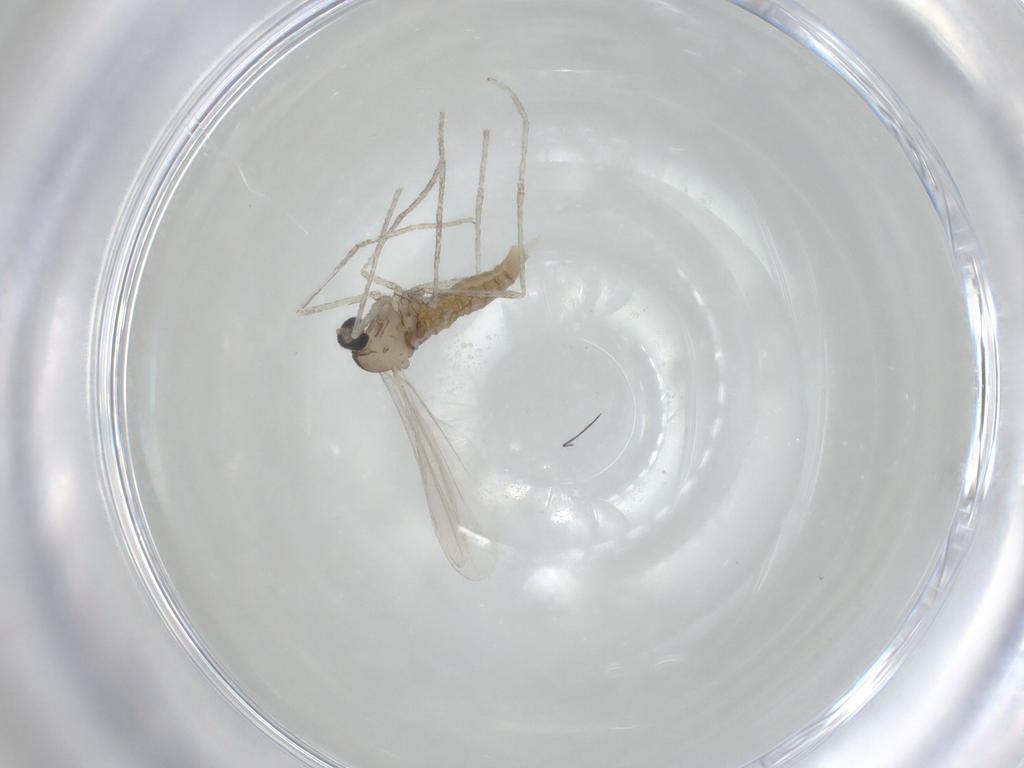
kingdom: Animalia
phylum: Arthropoda
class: Insecta
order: Diptera
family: Cecidomyiidae
